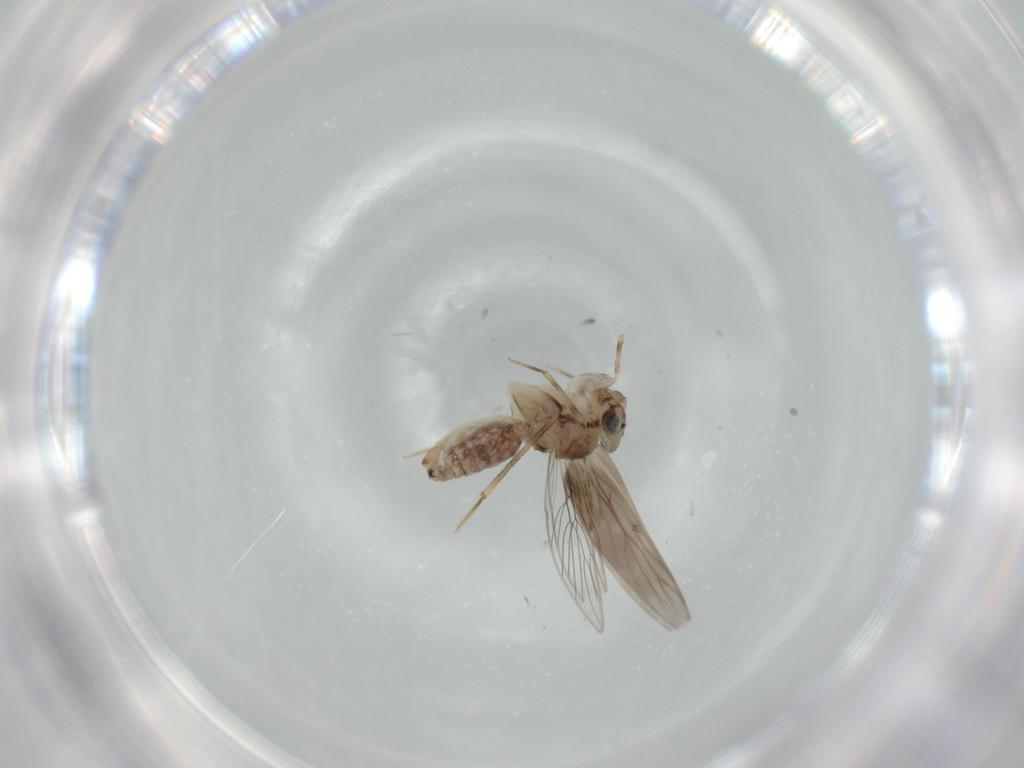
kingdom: Animalia
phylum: Arthropoda
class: Insecta
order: Psocodea
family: Lepidopsocidae
